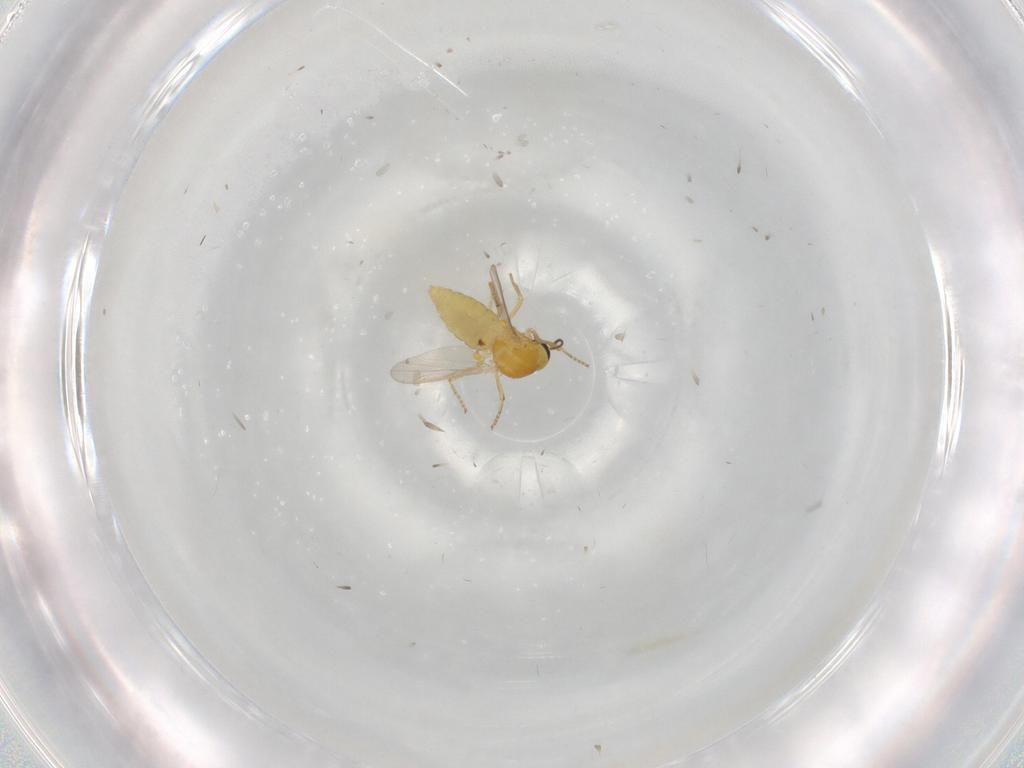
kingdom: Animalia
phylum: Arthropoda
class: Insecta
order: Diptera
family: Ceratopogonidae
